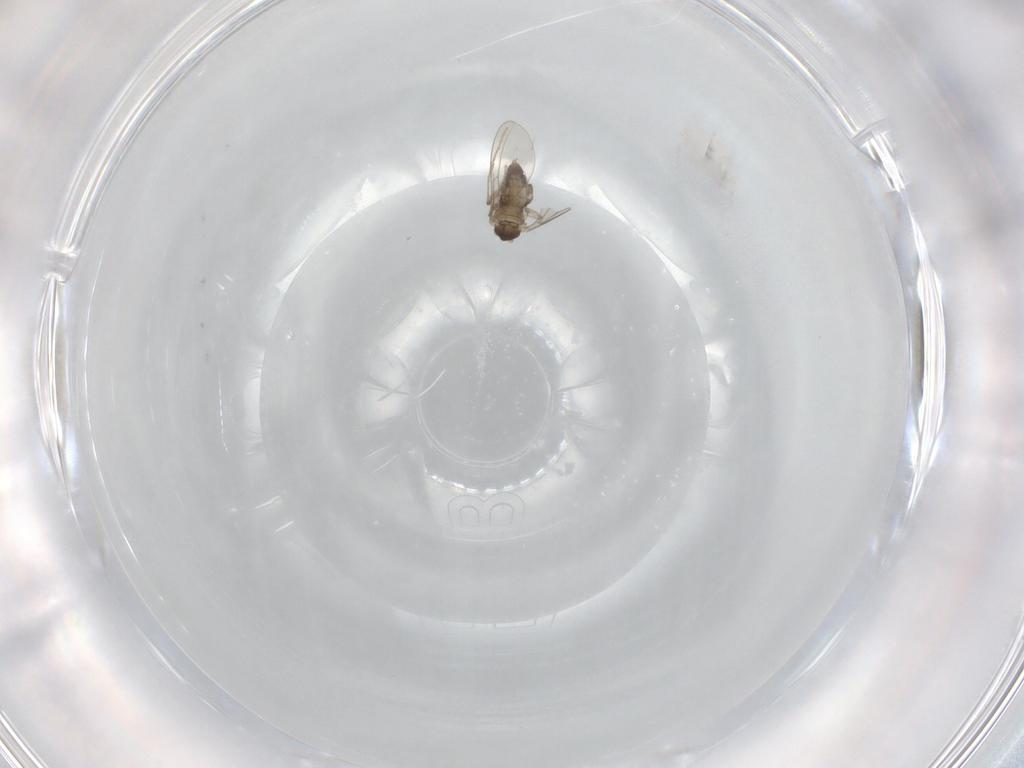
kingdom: Animalia
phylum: Arthropoda
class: Insecta
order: Diptera
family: Cecidomyiidae
